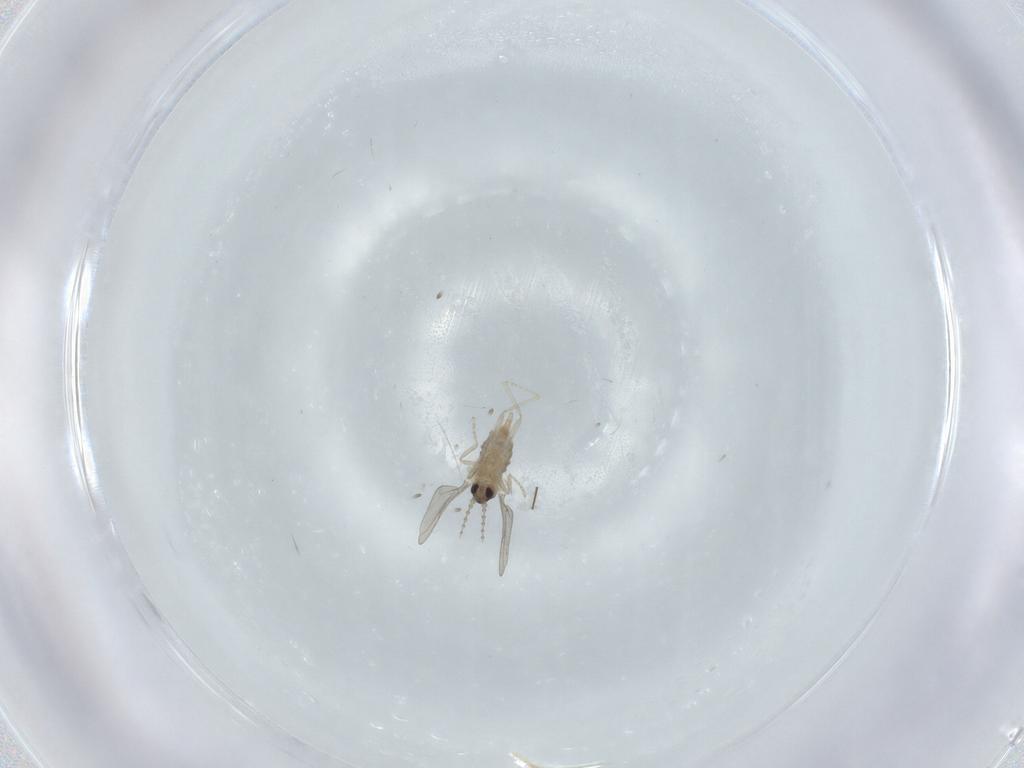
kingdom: Animalia
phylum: Arthropoda
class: Insecta
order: Diptera
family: Cecidomyiidae
